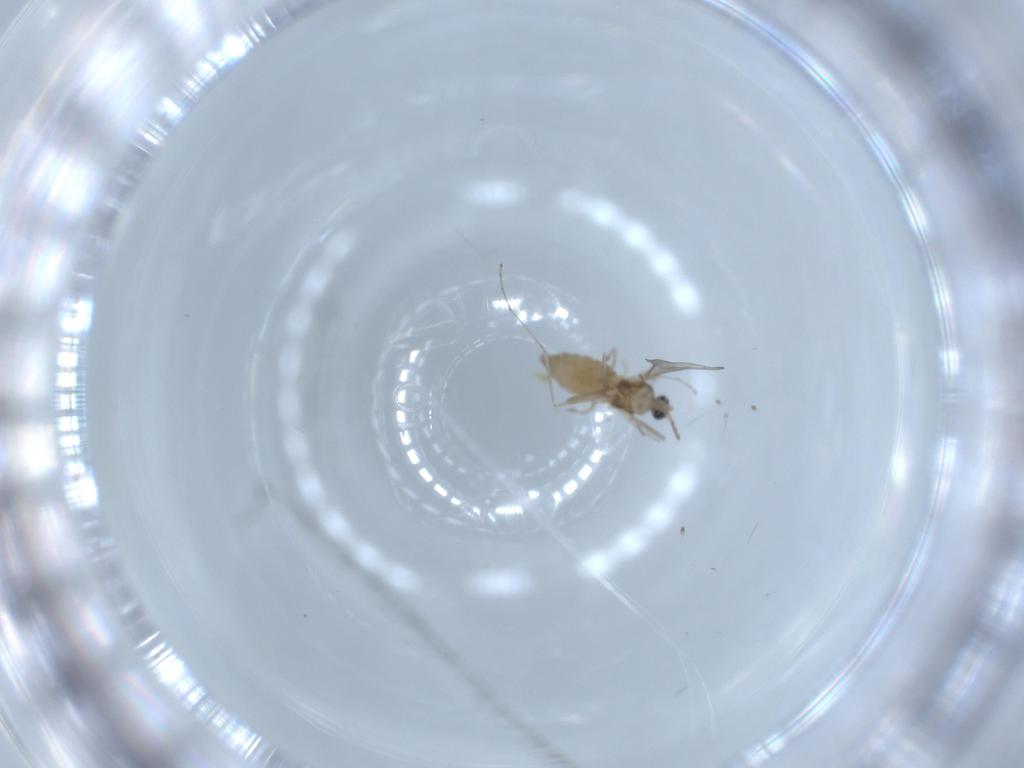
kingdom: Animalia
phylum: Arthropoda
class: Insecta
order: Diptera
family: Cecidomyiidae
